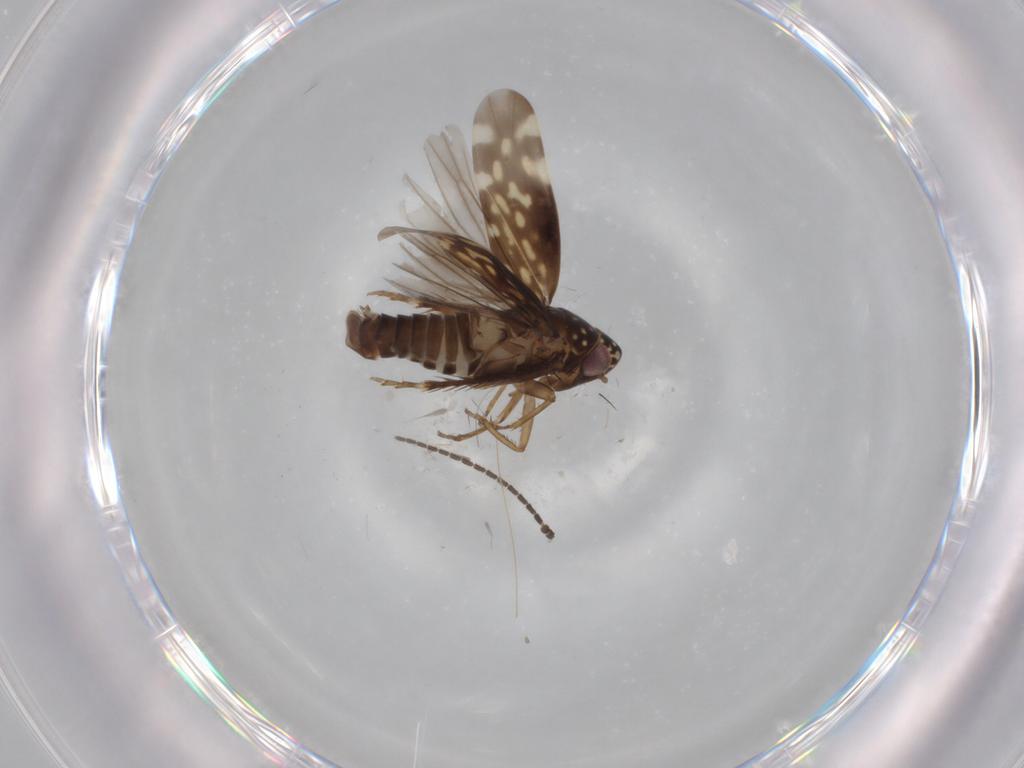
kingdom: Animalia
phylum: Arthropoda
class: Insecta
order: Hemiptera
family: Cicadellidae
